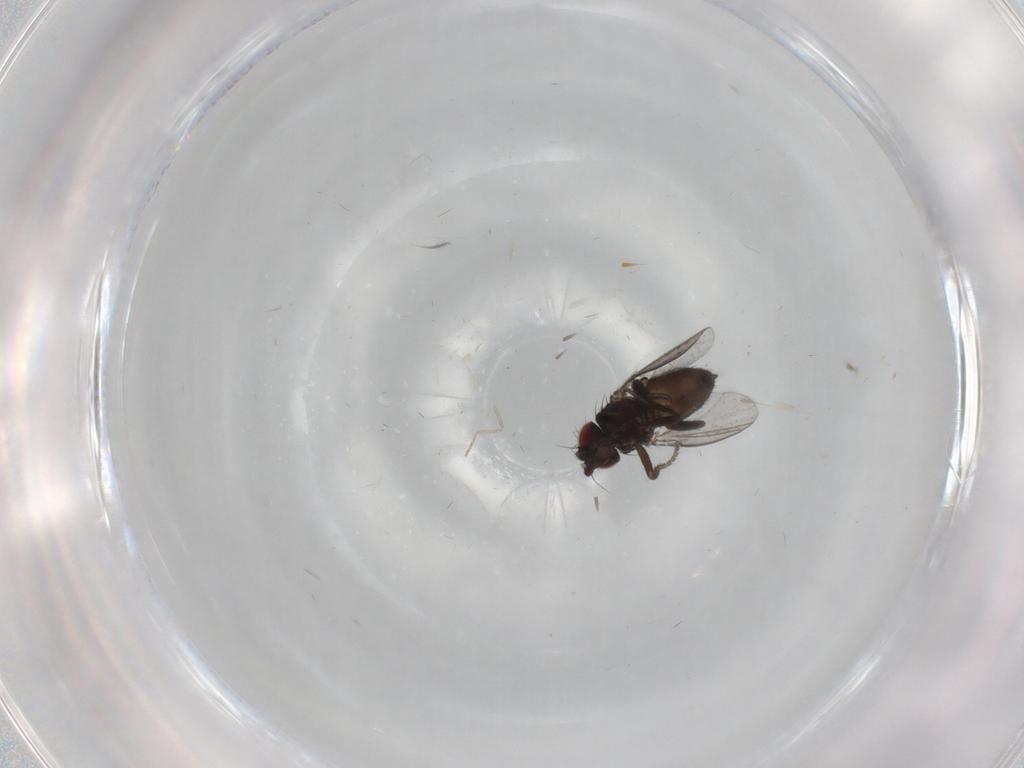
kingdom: Animalia
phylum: Arthropoda
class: Insecta
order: Diptera
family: Milichiidae
